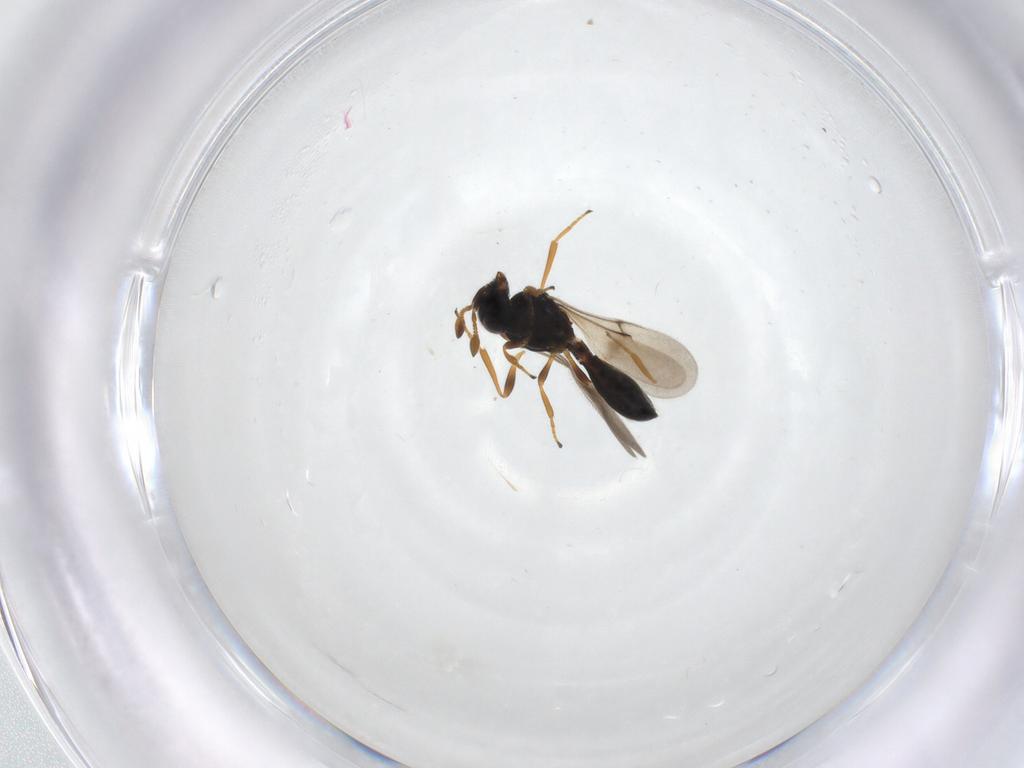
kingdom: Animalia
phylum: Arthropoda
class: Insecta
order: Hymenoptera
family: Scelionidae
